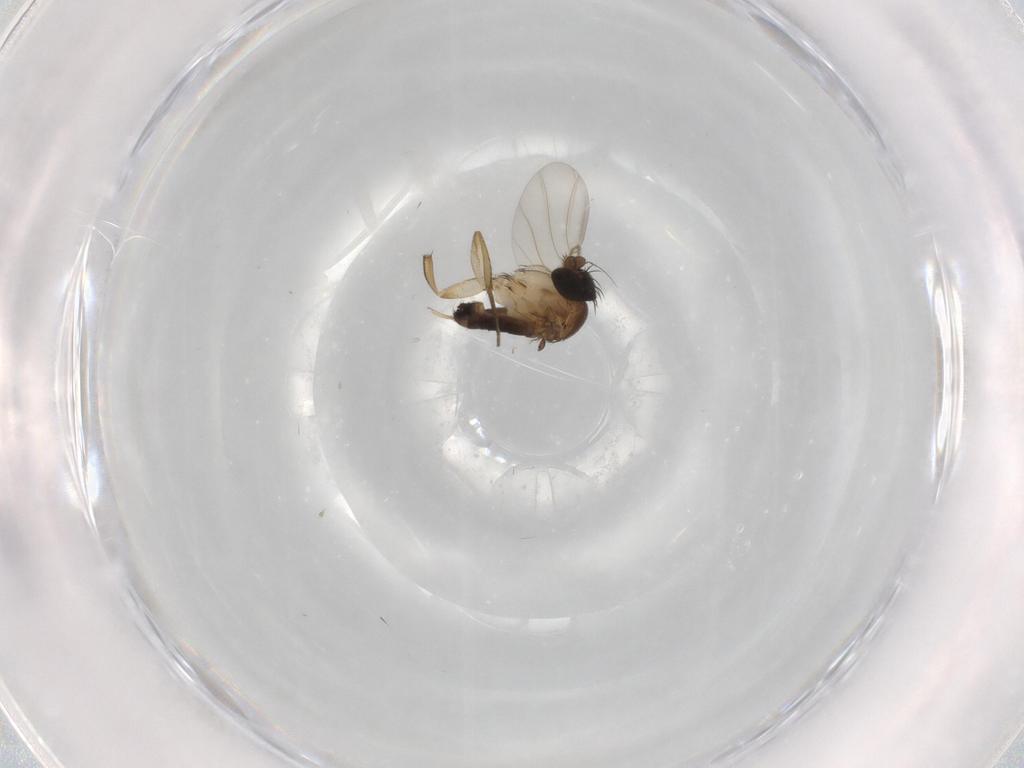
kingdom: Animalia
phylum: Arthropoda
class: Insecta
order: Diptera
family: Phoridae
